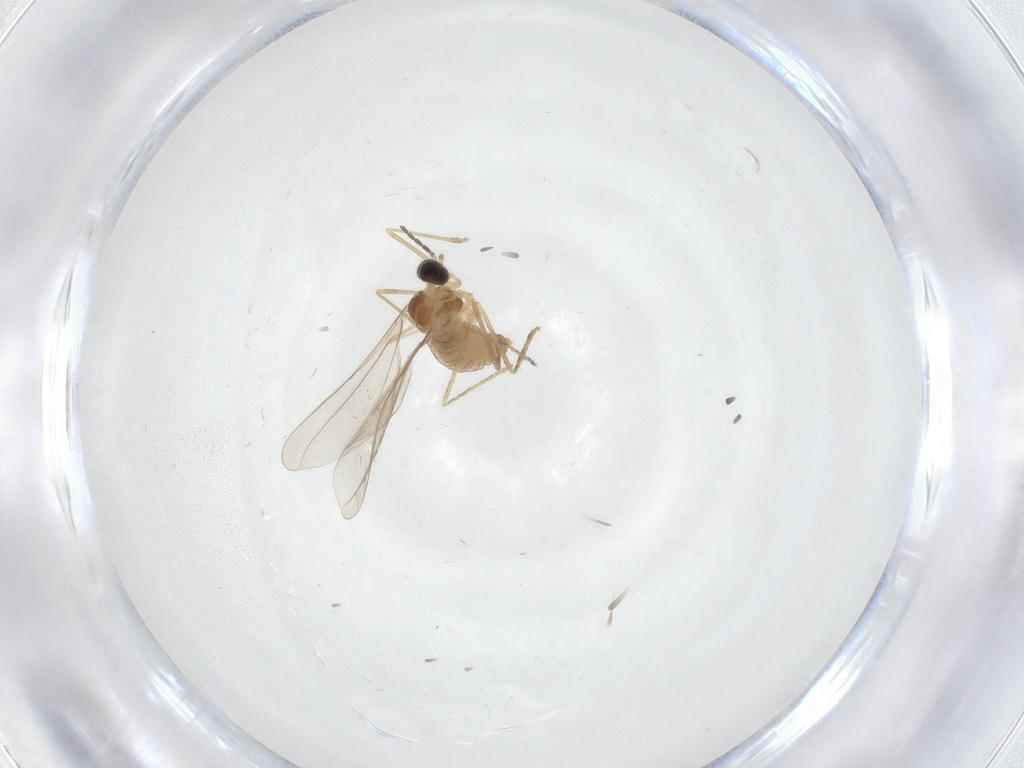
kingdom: Animalia
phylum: Arthropoda
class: Insecta
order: Diptera
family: Cecidomyiidae
